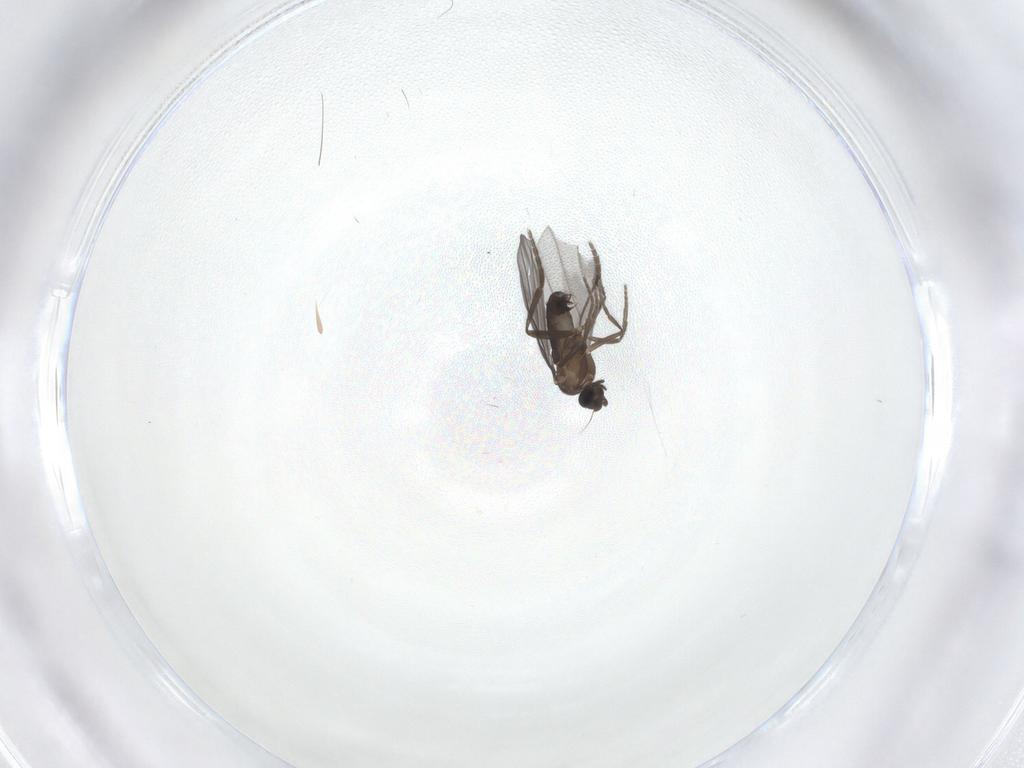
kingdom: Animalia
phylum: Arthropoda
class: Insecta
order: Diptera
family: Phoridae
